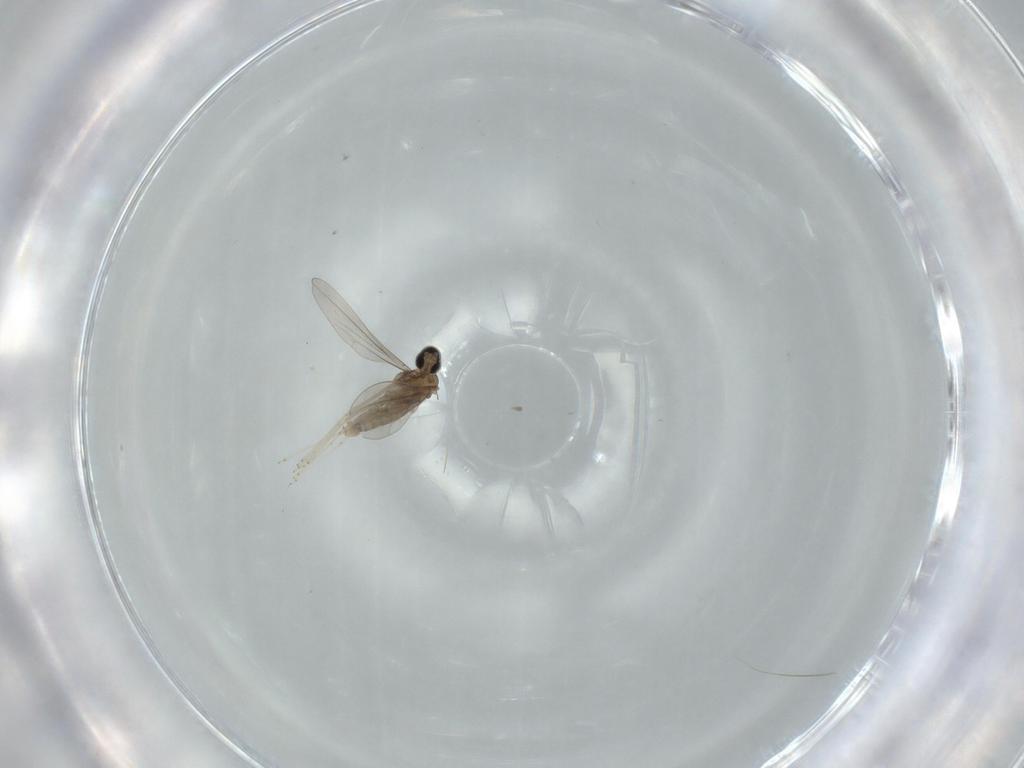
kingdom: Animalia
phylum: Arthropoda
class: Insecta
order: Diptera
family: Cecidomyiidae
